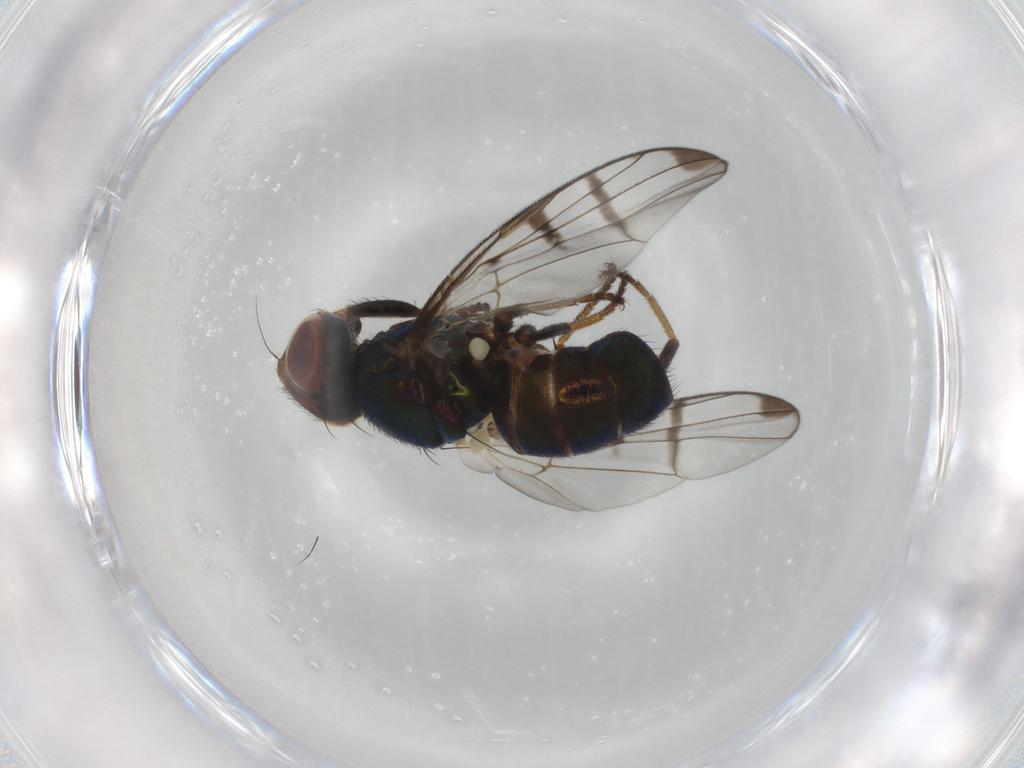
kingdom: Animalia
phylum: Arthropoda
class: Insecta
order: Diptera
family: Platystomatidae
